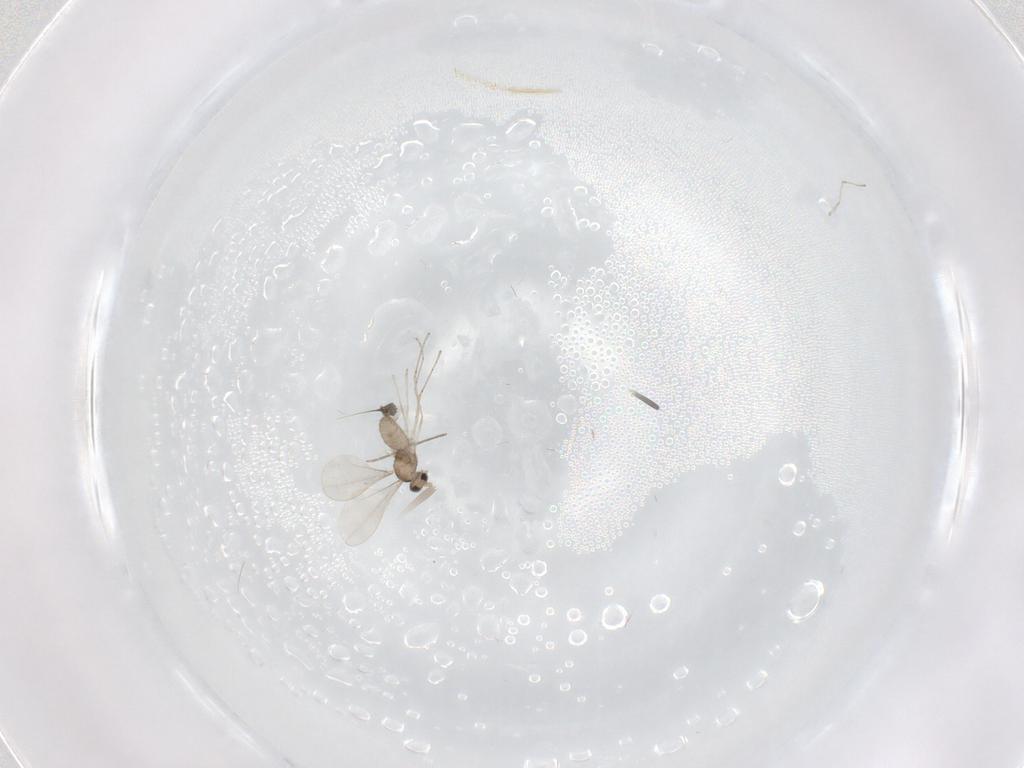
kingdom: Animalia
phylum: Arthropoda
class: Insecta
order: Diptera
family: Cecidomyiidae
